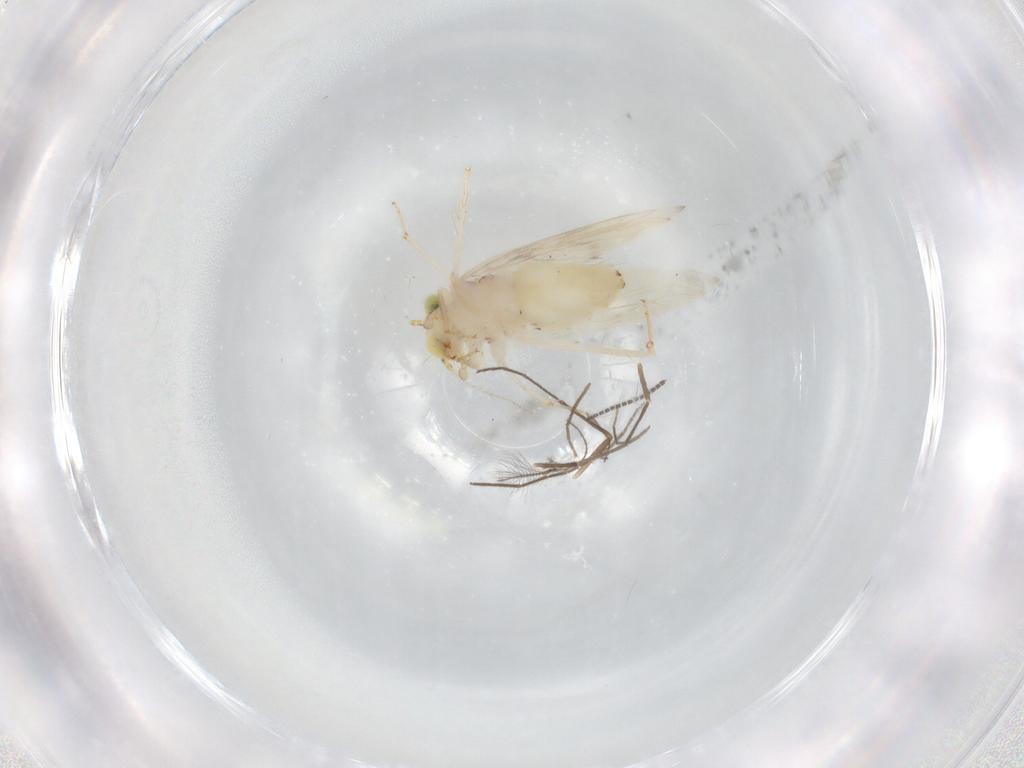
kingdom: Animalia
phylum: Arthropoda
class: Insecta
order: Psocodea
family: Lepidopsocidae
